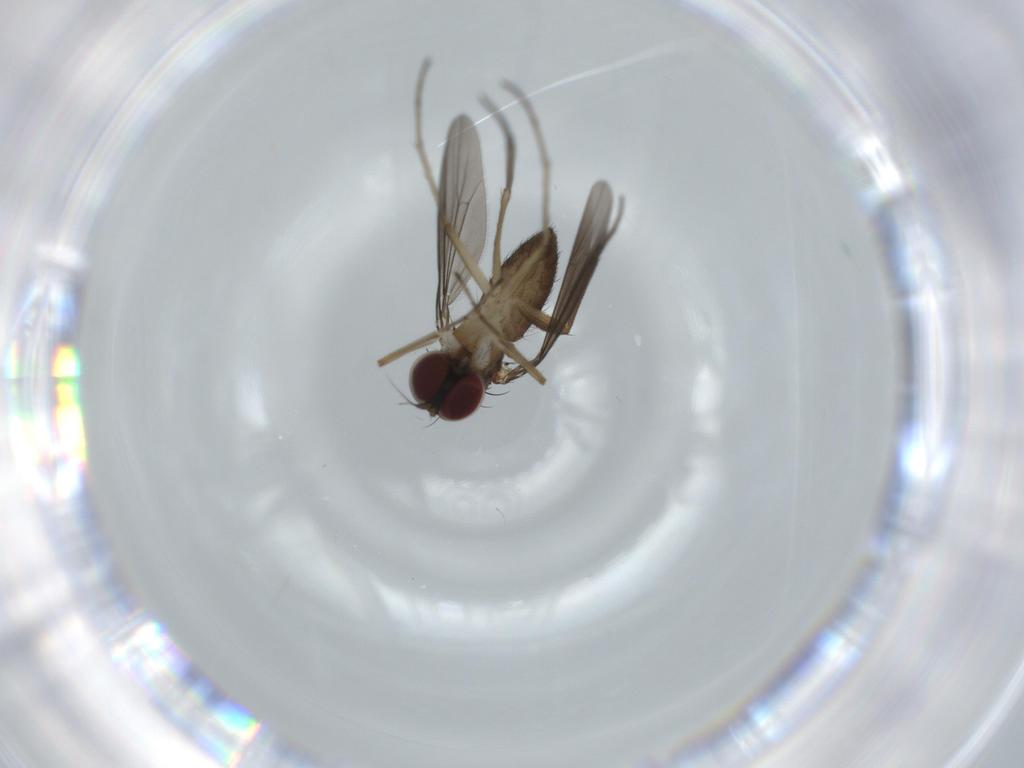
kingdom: Animalia
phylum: Arthropoda
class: Insecta
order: Diptera
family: Dolichopodidae
